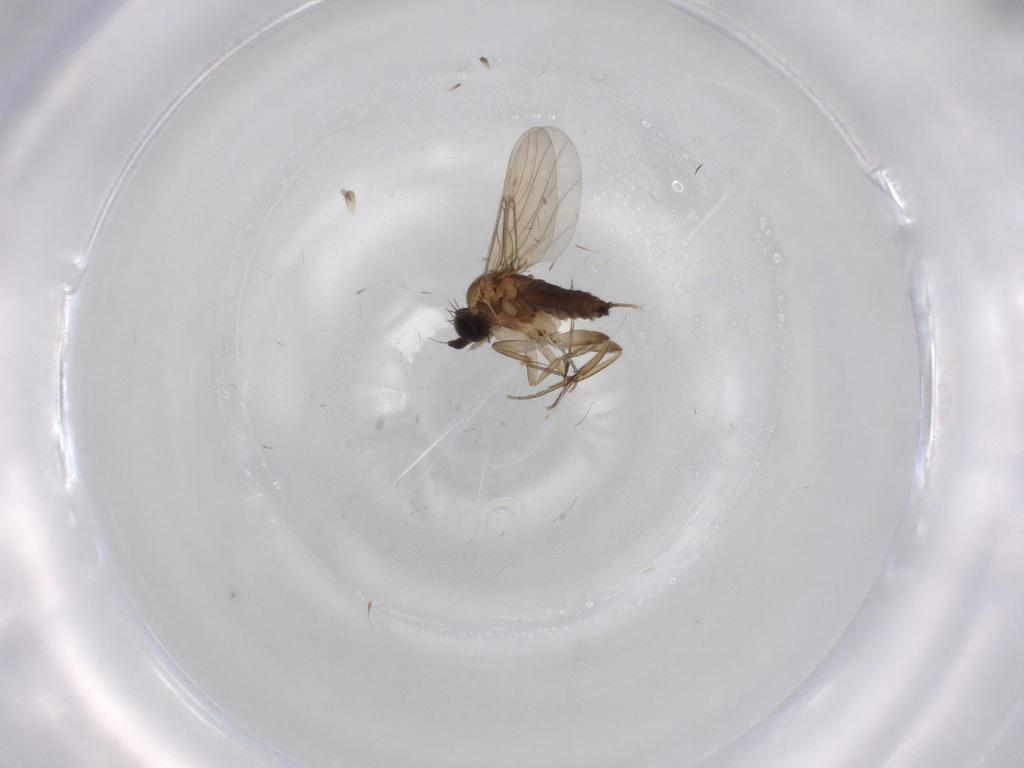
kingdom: Animalia
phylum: Arthropoda
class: Insecta
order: Diptera
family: Phoridae
